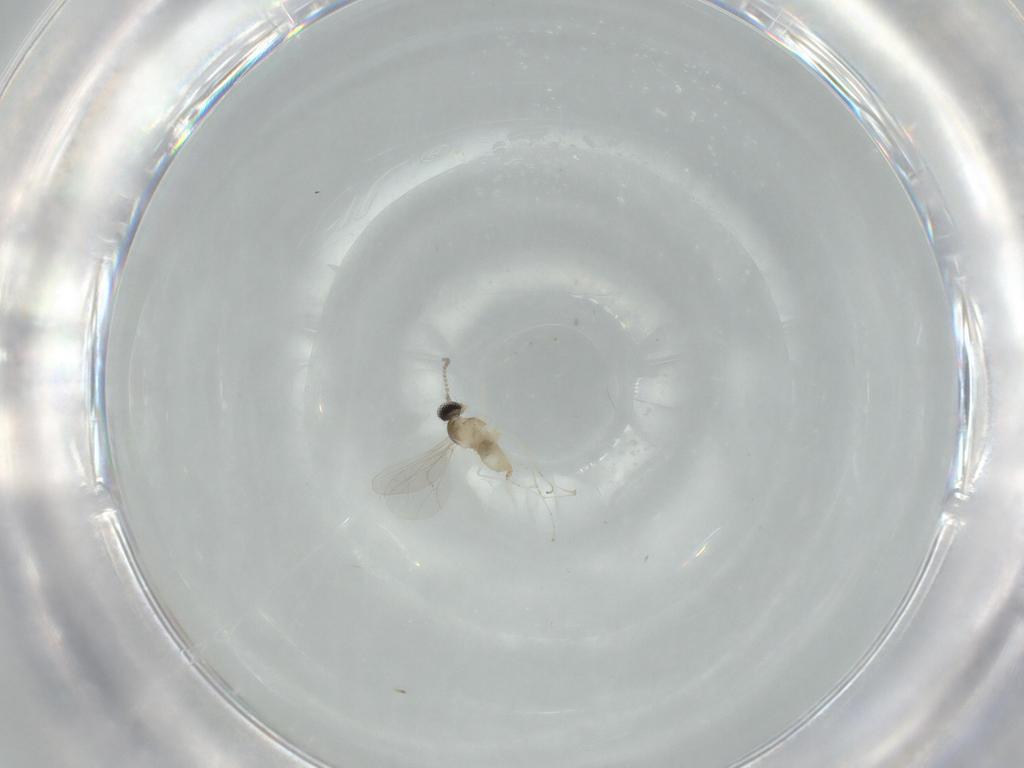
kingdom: Animalia
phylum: Arthropoda
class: Insecta
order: Diptera
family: Cecidomyiidae
